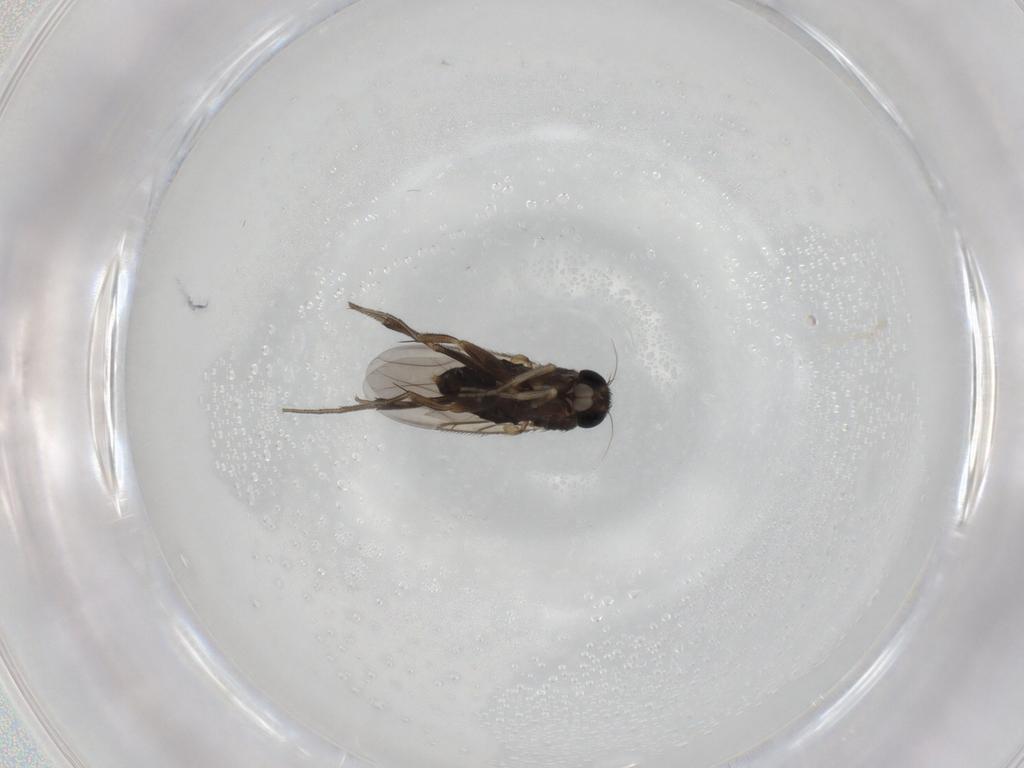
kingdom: Animalia
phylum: Arthropoda
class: Insecta
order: Diptera
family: Phoridae
